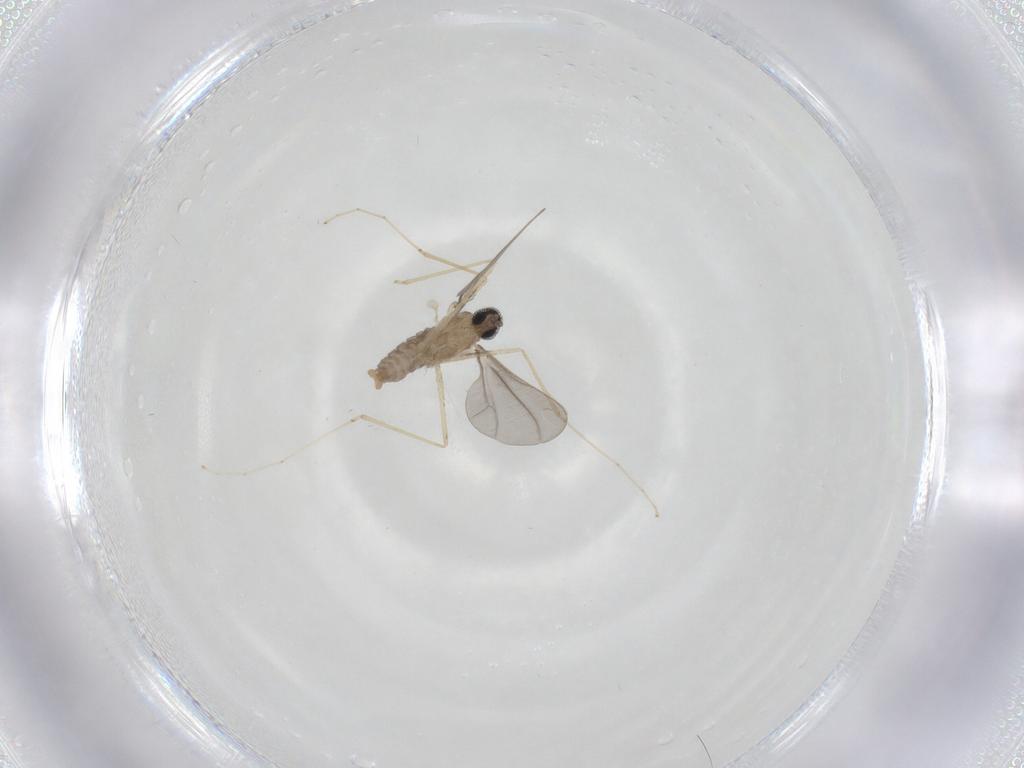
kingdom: Animalia
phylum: Arthropoda
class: Insecta
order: Diptera
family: Cecidomyiidae
